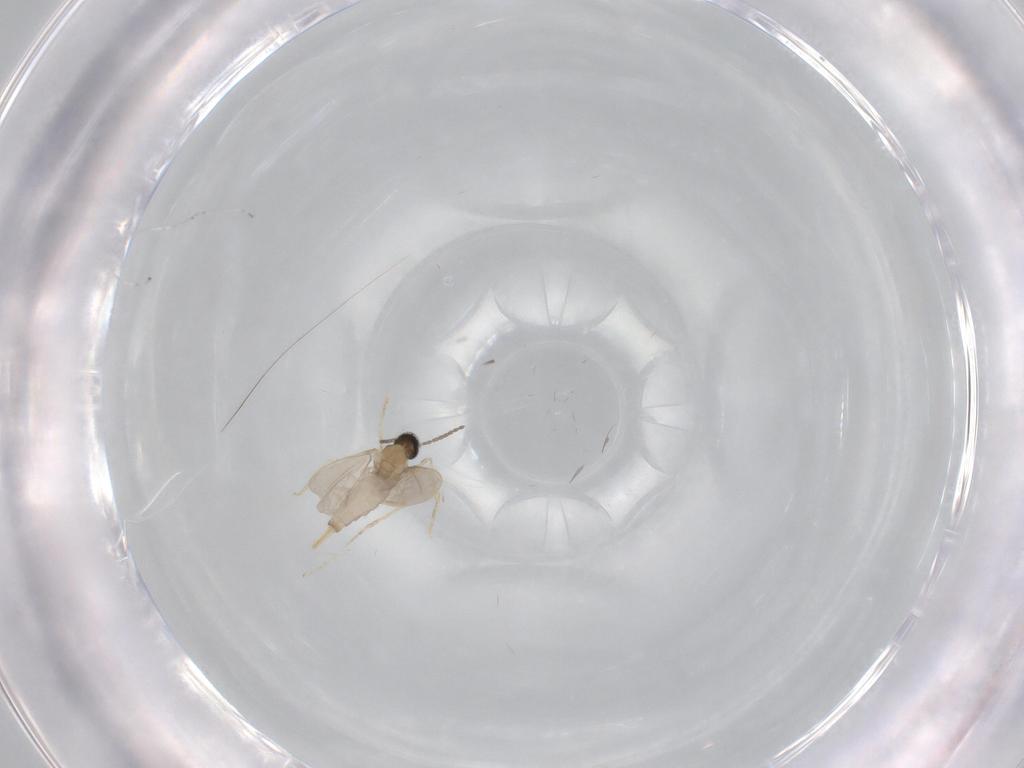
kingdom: Animalia
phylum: Arthropoda
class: Insecta
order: Diptera
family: Cecidomyiidae
